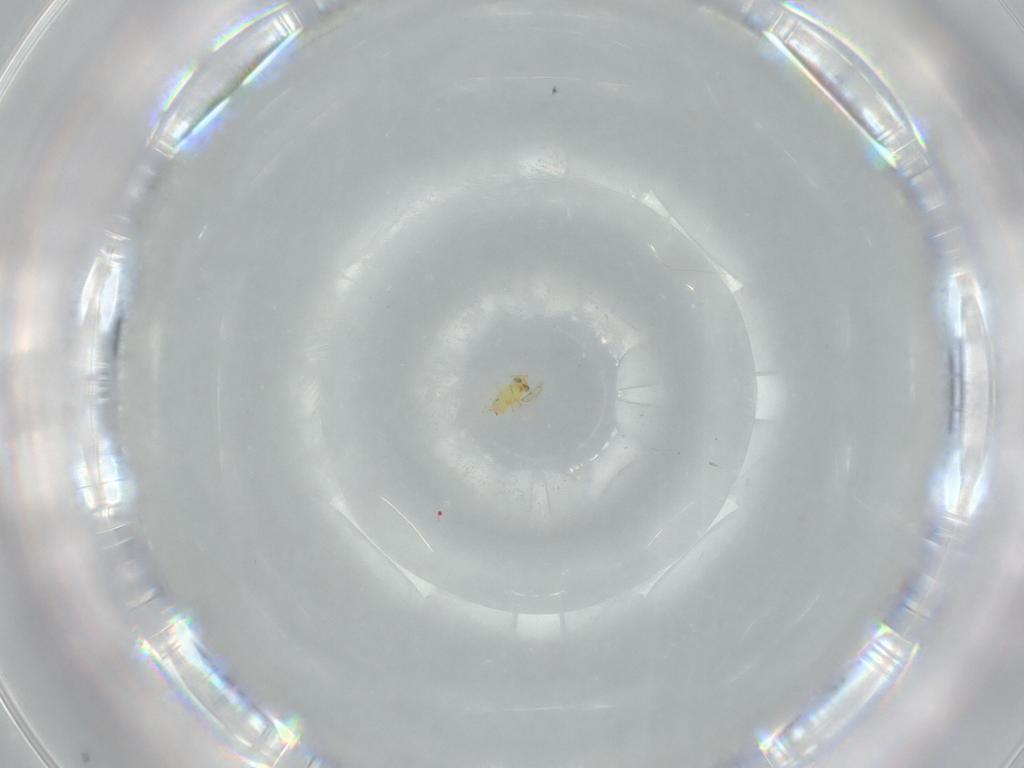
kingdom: Animalia
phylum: Arthropoda
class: Insecta
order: Hymenoptera
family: Aphelinidae
